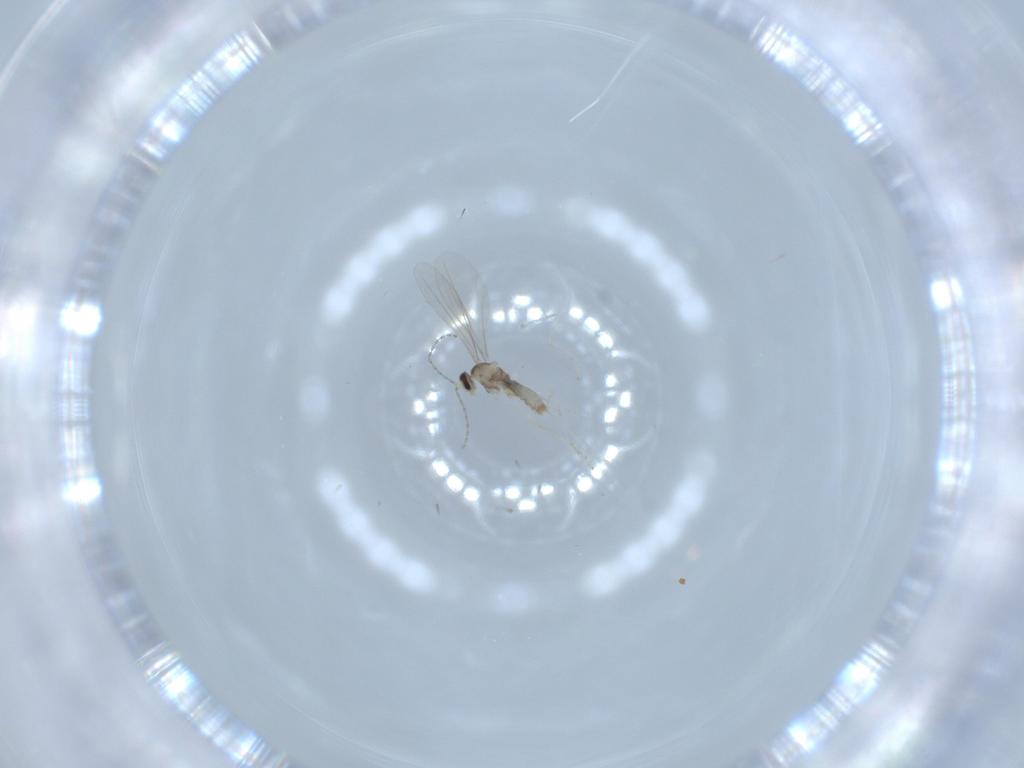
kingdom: Animalia
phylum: Arthropoda
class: Insecta
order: Diptera
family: Cecidomyiidae
